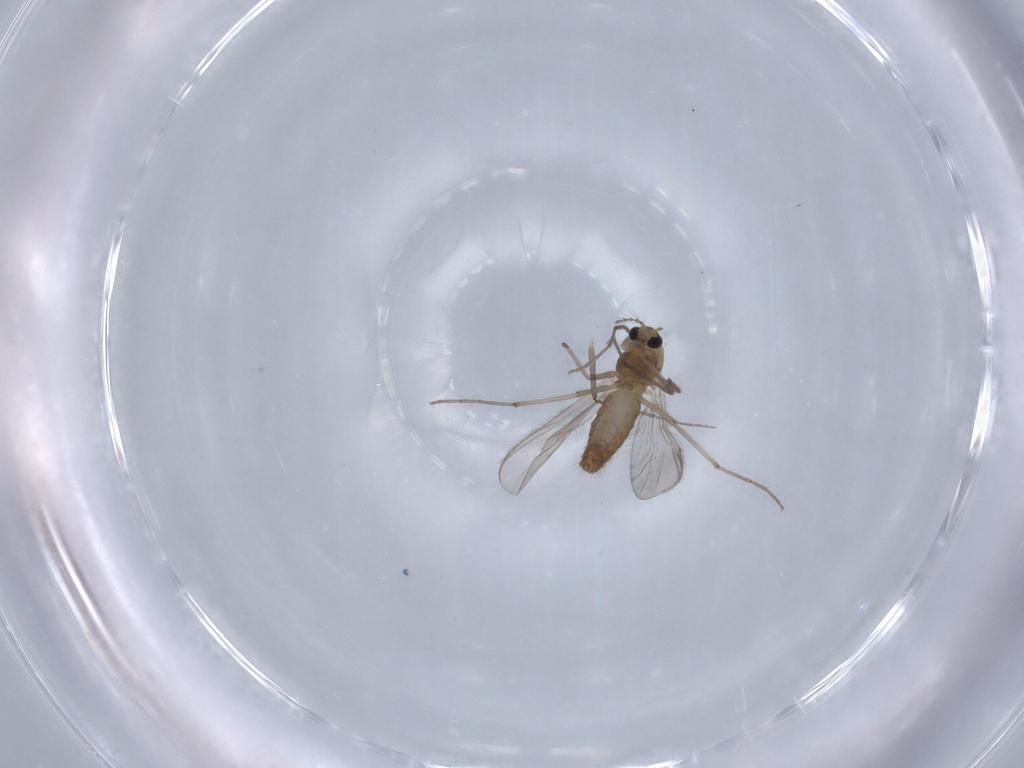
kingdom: Animalia
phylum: Arthropoda
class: Insecta
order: Diptera
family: Chironomidae
